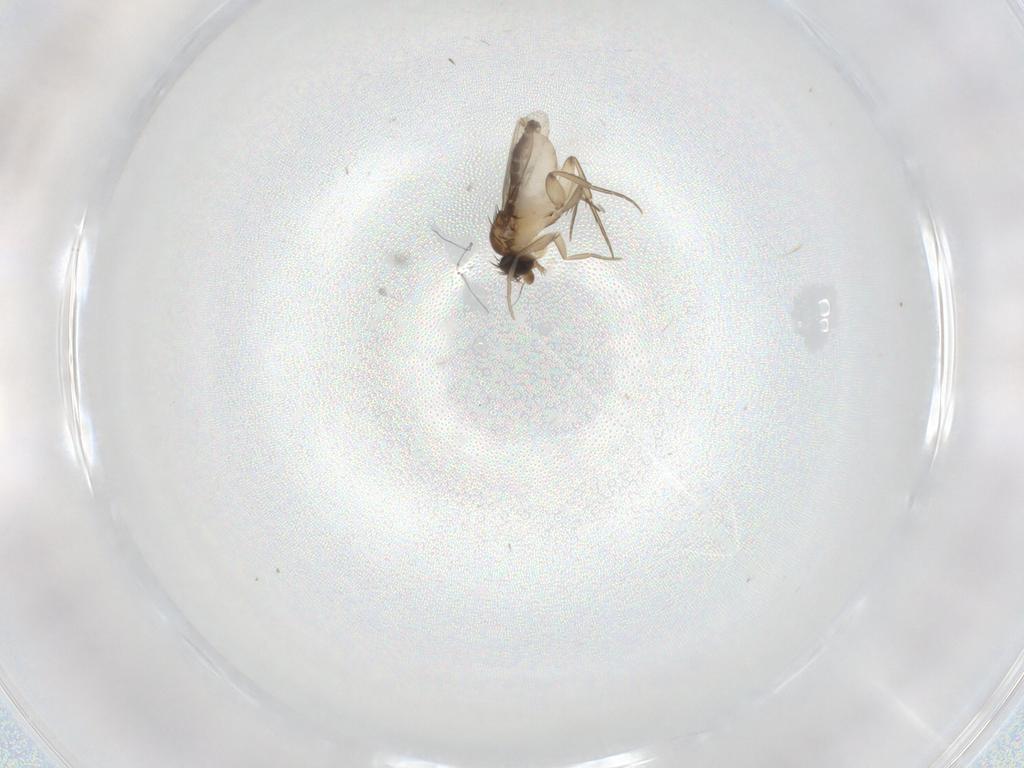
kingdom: Animalia
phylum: Arthropoda
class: Insecta
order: Diptera
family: Phoridae
